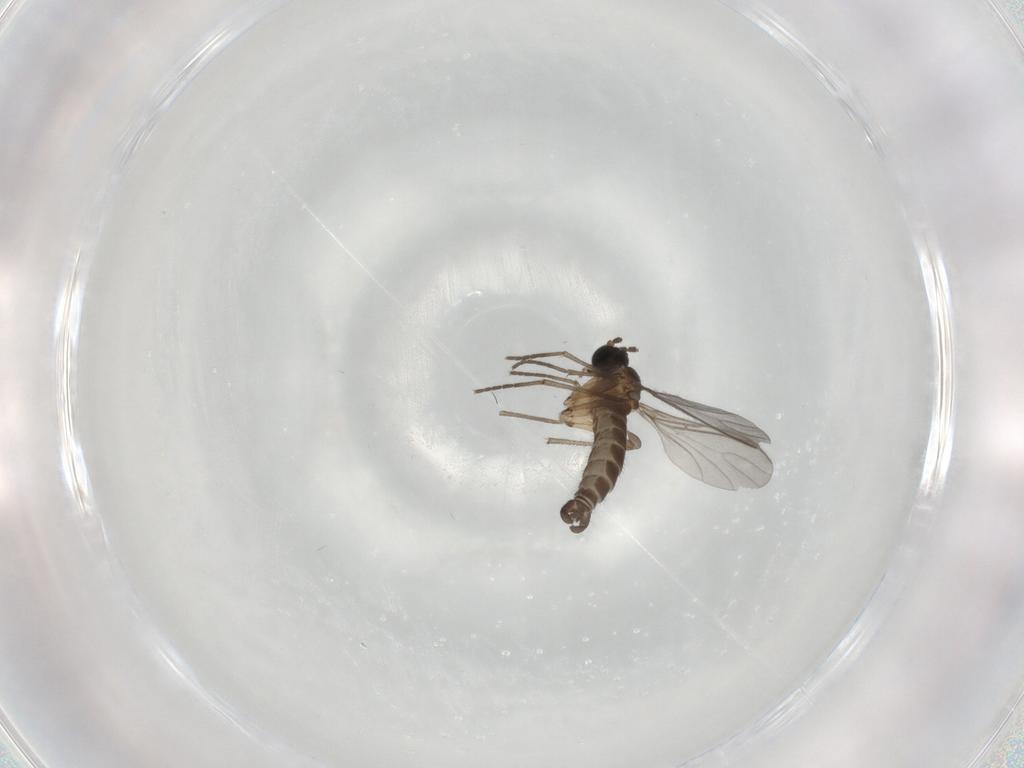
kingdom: Animalia
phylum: Arthropoda
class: Insecta
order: Diptera
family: Sciaridae
